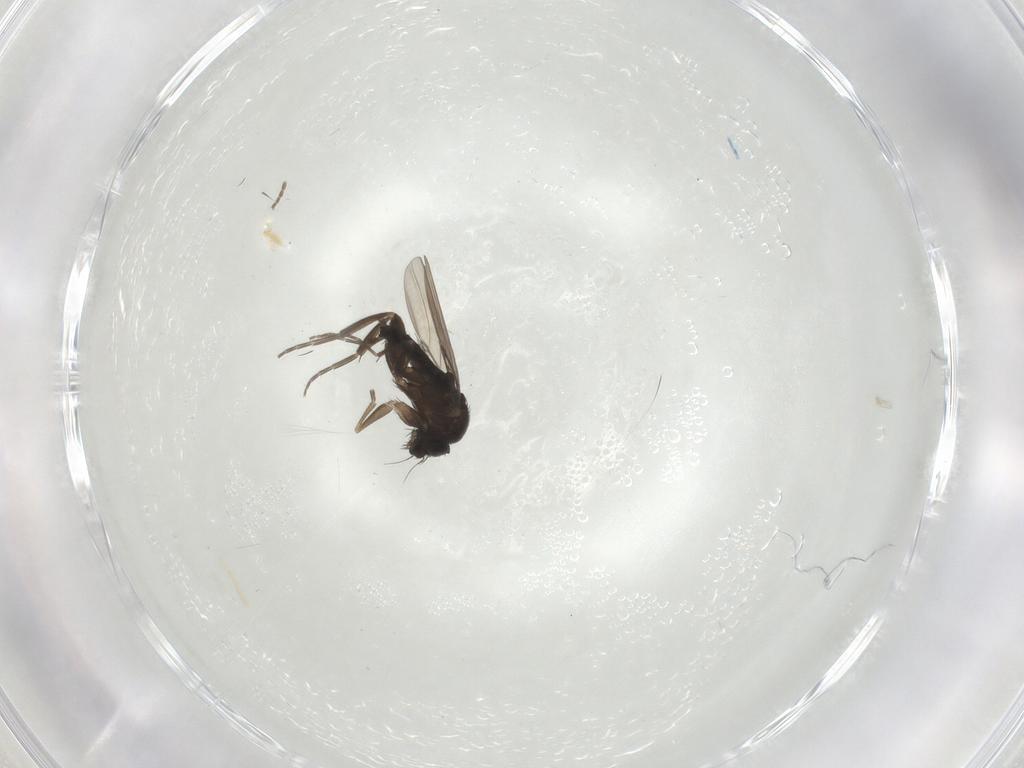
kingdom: Animalia
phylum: Arthropoda
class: Insecta
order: Diptera
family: Phoridae
